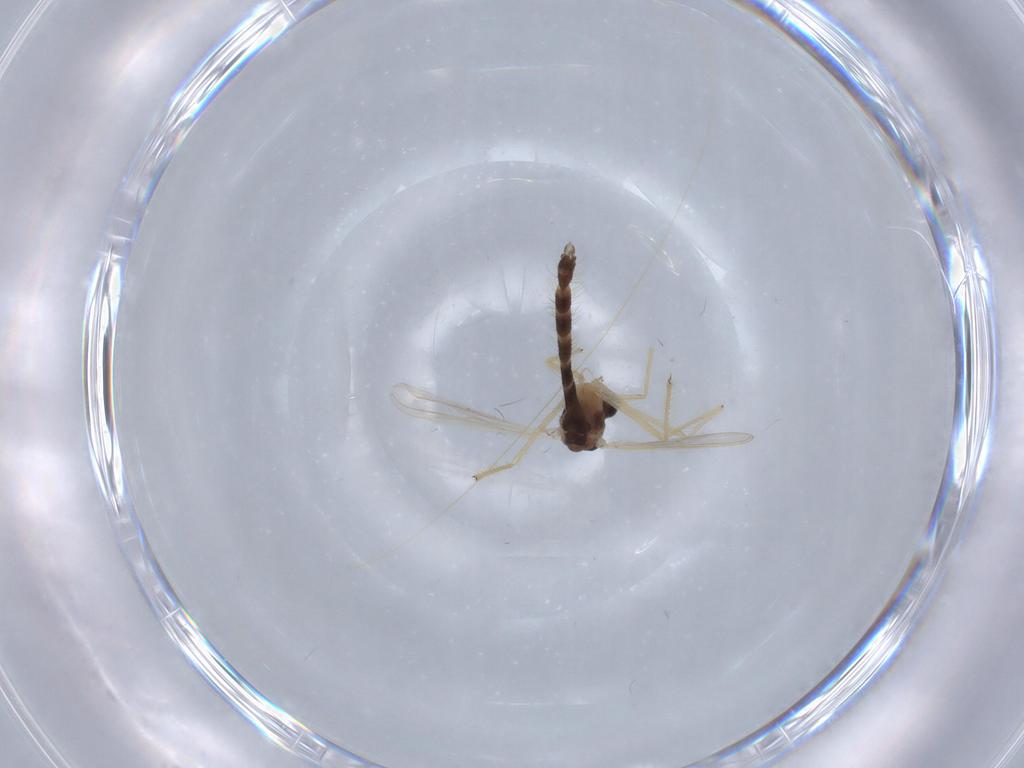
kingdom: Animalia
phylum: Arthropoda
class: Insecta
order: Diptera
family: Chironomidae
